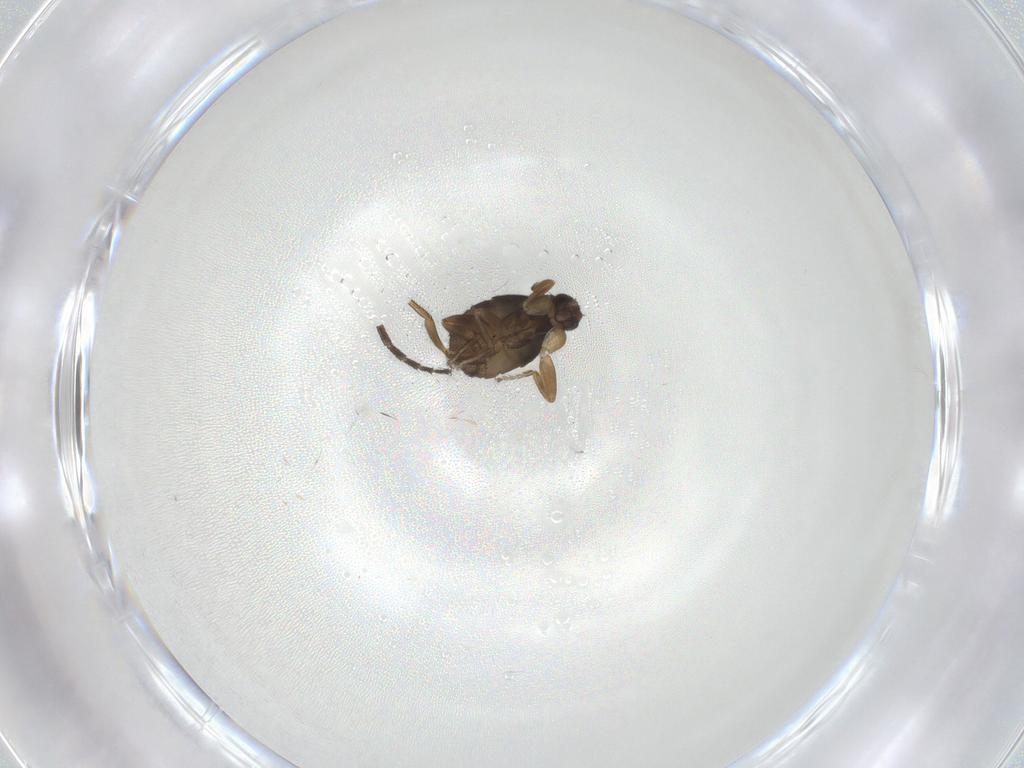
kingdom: Animalia
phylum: Arthropoda
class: Insecta
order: Diptera
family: Phoridae
